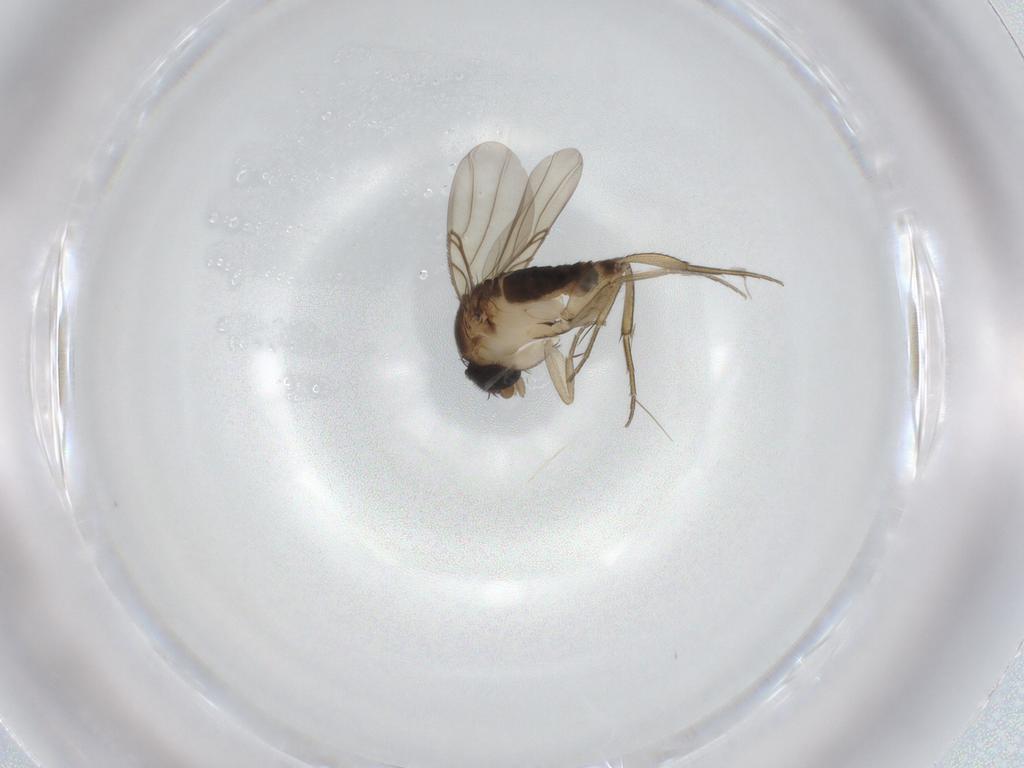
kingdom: Animalia
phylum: Arthropoda
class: Insecta
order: Diptera
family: Phoridae
